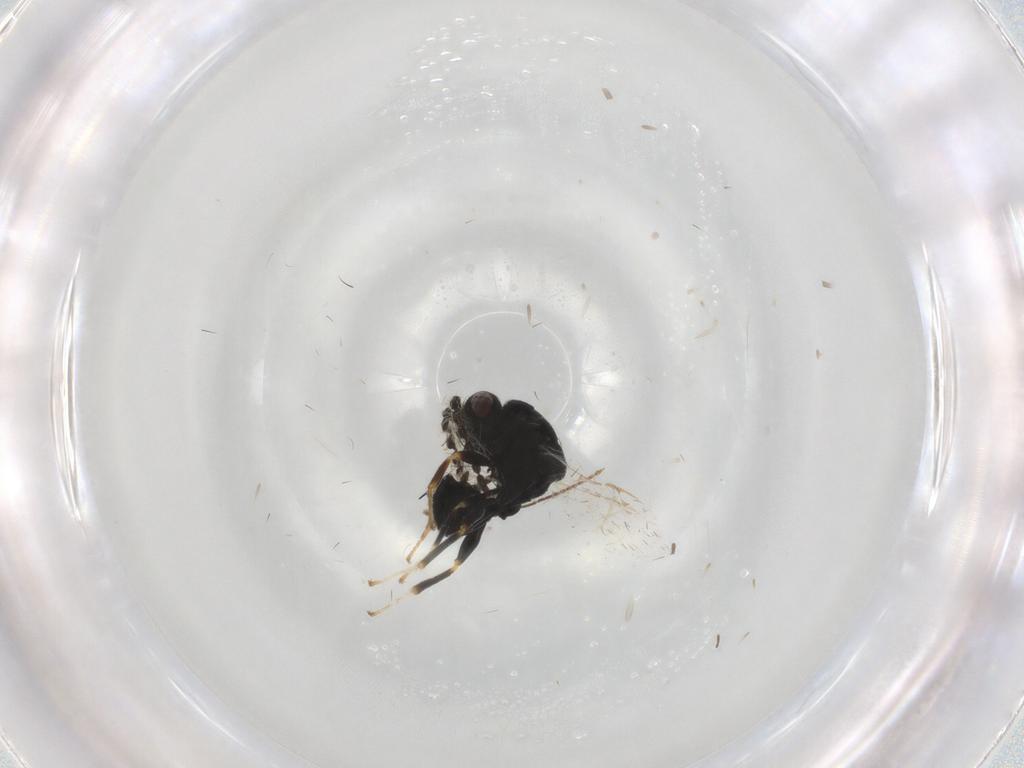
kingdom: Animalia
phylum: Arthropoda
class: Insecta
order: Hymenoptera
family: Eurytomidae
